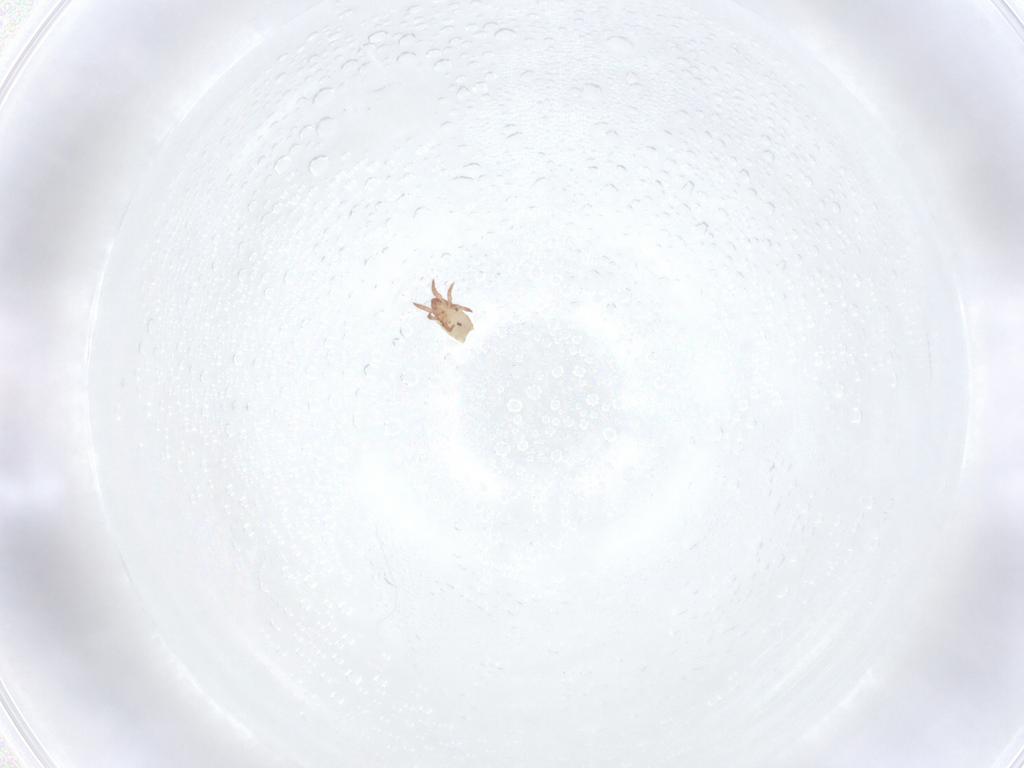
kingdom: Animalia
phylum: Arthropoda
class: Arachnida
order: Sarcoptiformes
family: Nothridae
